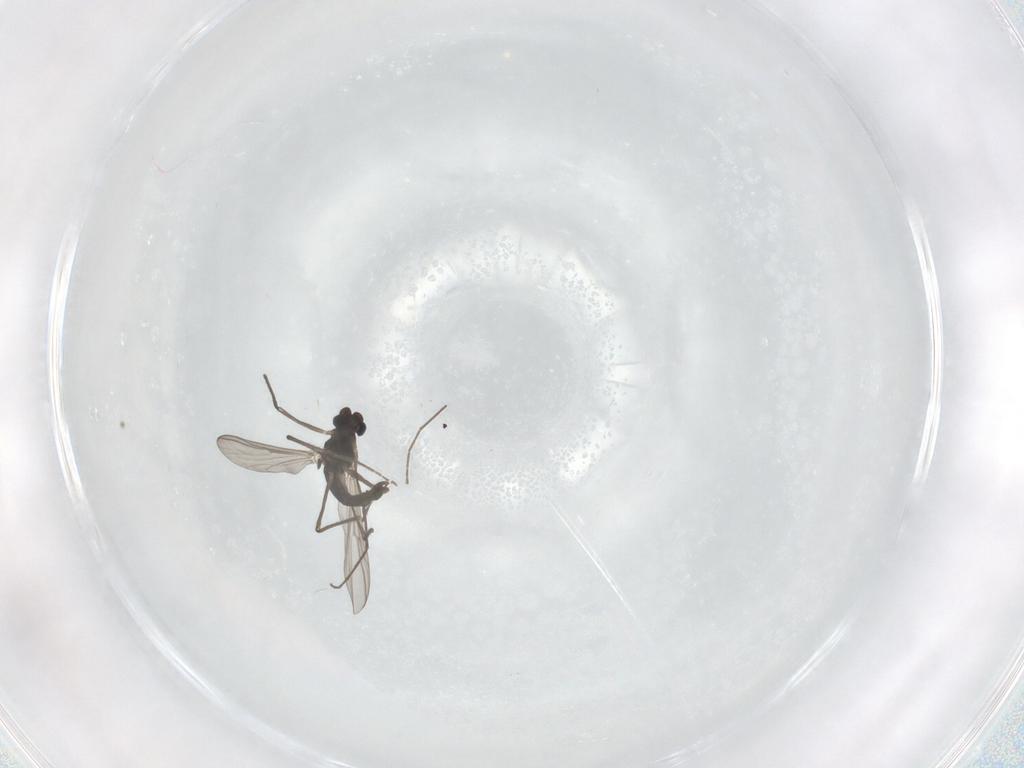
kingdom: Animalia
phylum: Arthropoda
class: Insecta
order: Diptera
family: Chironomidae
